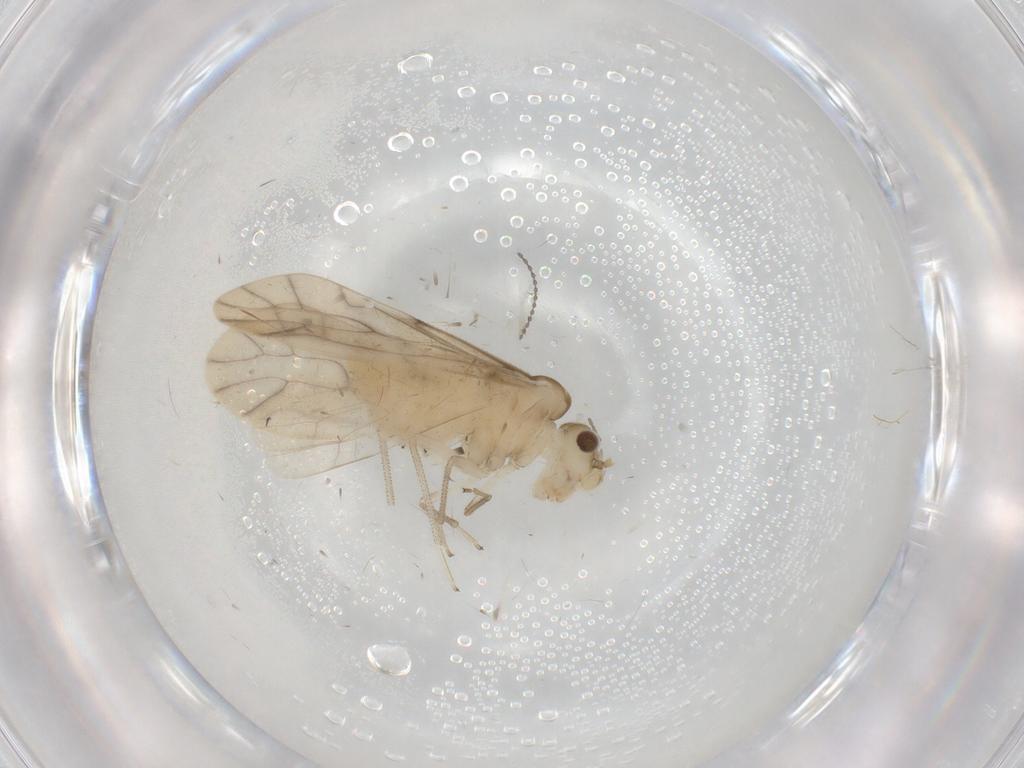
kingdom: Animalia
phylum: Arthropoda
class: Insecta
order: Psocodea
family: Caeciliusidae
